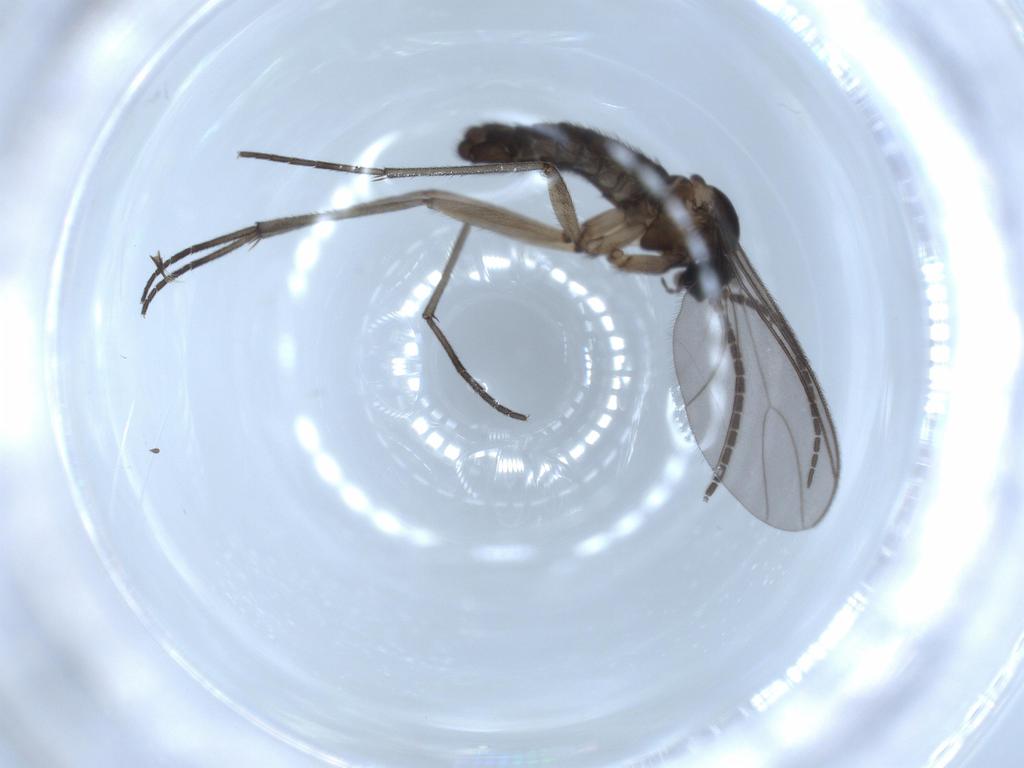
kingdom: Animalia
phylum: Arthropoda
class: Insecta
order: Diptera
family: Sciaridae
